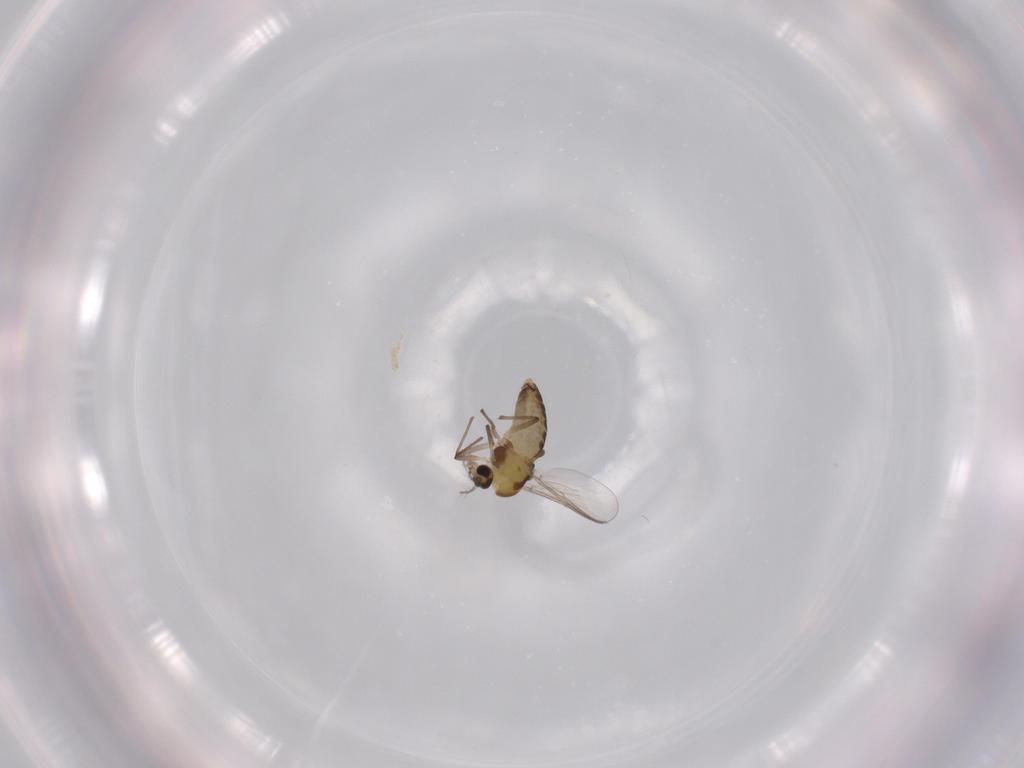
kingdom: Animalia
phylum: Arthropoda
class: Insecta
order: Diptera
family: Chironomidae
